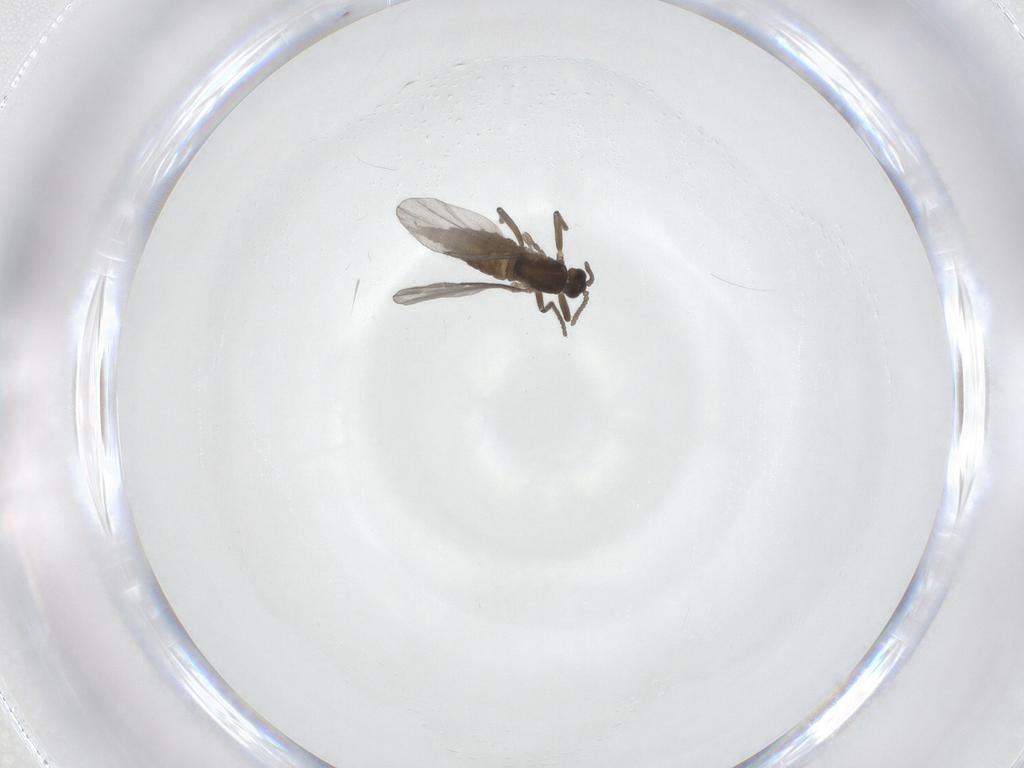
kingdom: Animalia
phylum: Arthropoda
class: Insecta
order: Diptera
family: Cecidomyiidae
